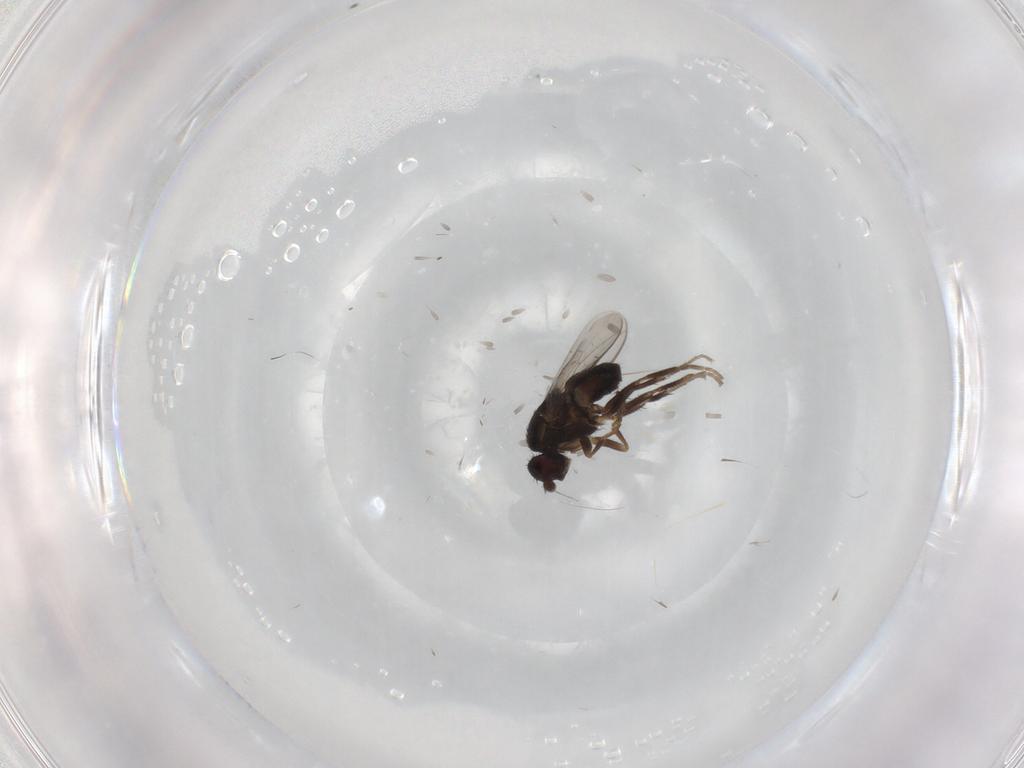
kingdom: Animalia
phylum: Arthropoda
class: Insecta
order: Diptera
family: Sphaeroceridae
